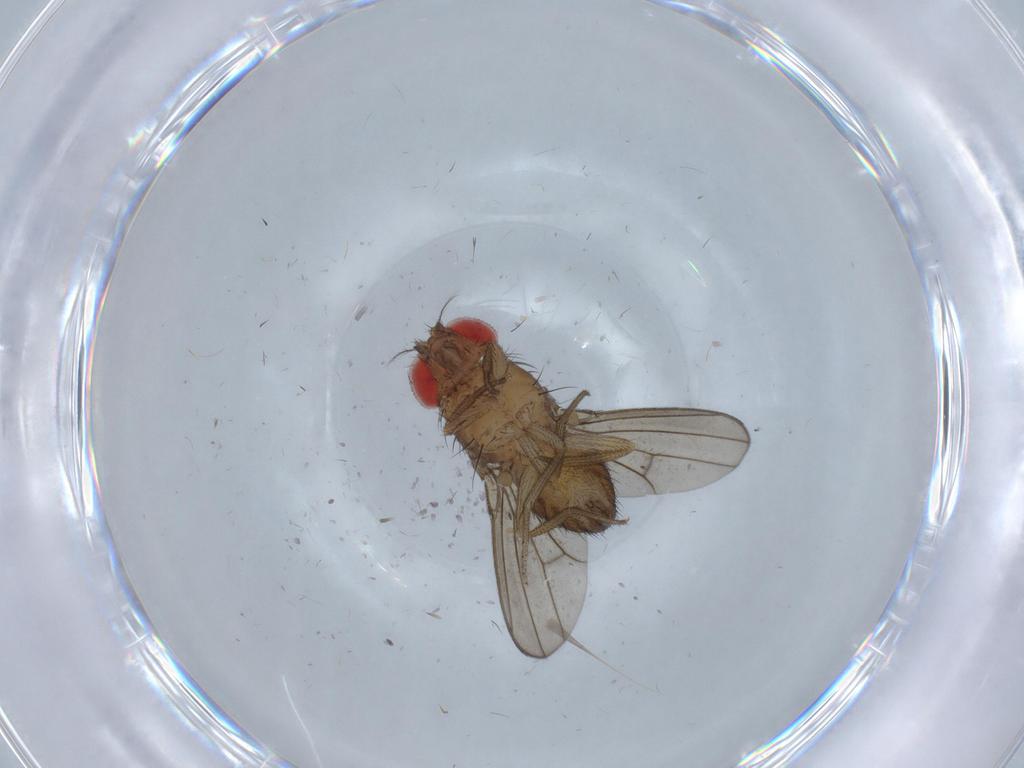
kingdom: Animalia
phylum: Arthropoda
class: Insecta
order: Diptera
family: Drosophilidae
